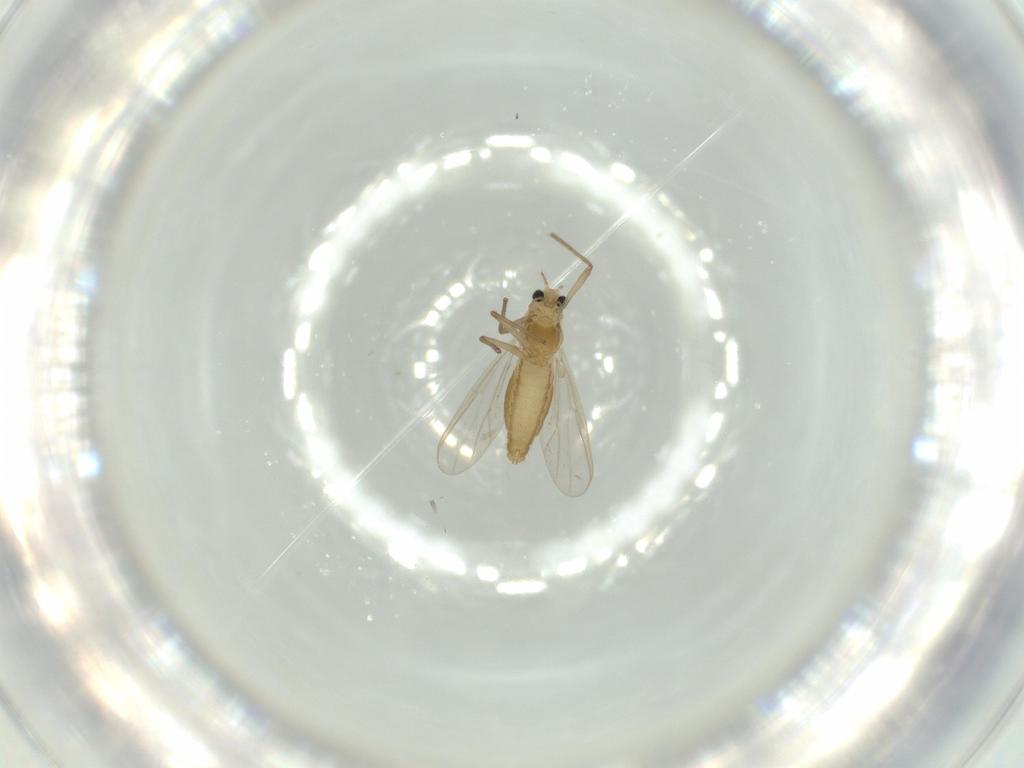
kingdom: Animalia
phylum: Arthropoda
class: Insecta
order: Diptera
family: Chironomidae
